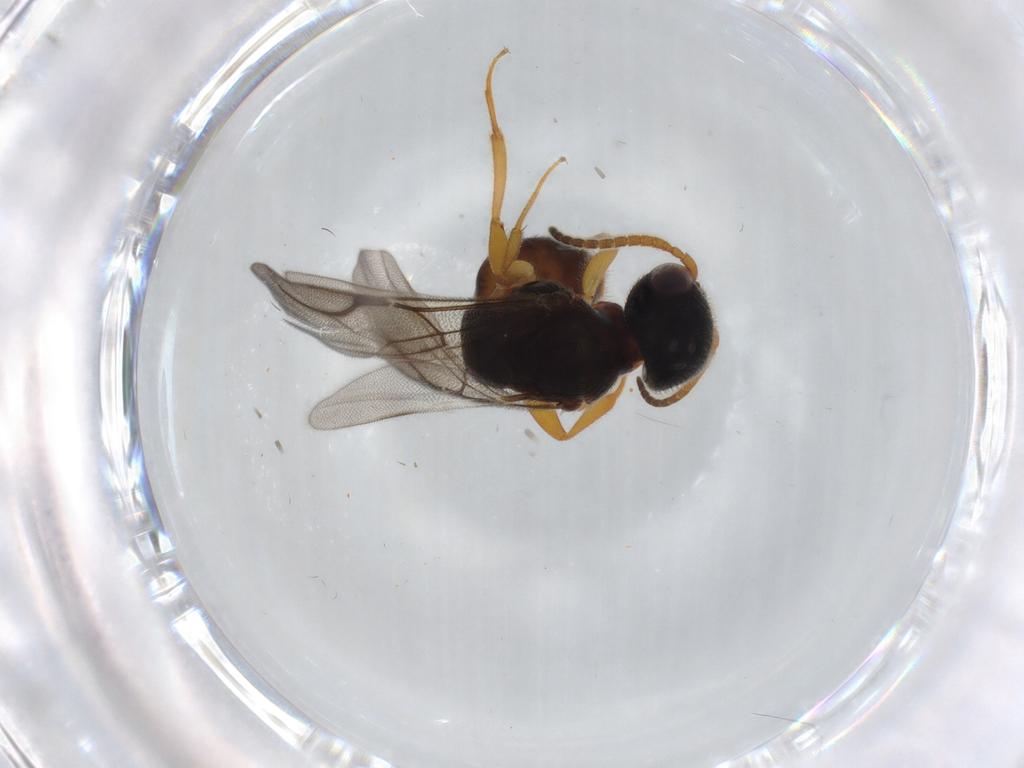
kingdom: Animalia
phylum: Arthropoda
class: Insecta
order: Hymenoptera
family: Bethylidae
